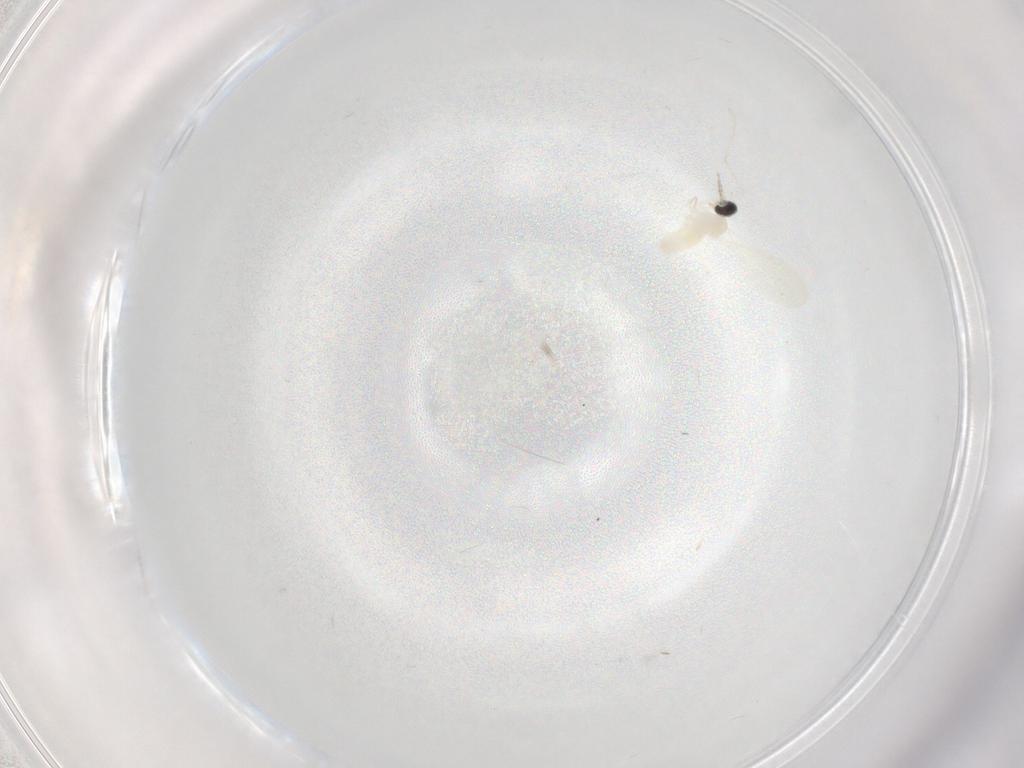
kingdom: Animalia
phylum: Arthropoda
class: Insecta
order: Diptera
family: Cecidomyiidae
